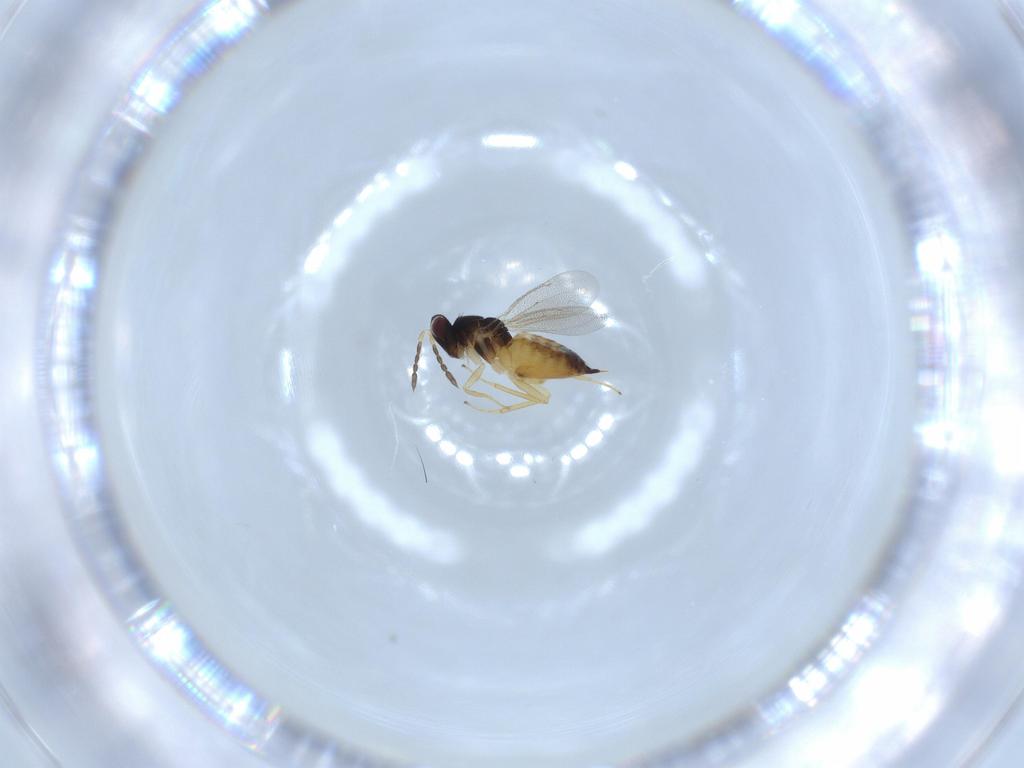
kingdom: Animalia
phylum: Arthropoda
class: Insecta
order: Hymenoptera
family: Eulophidae
